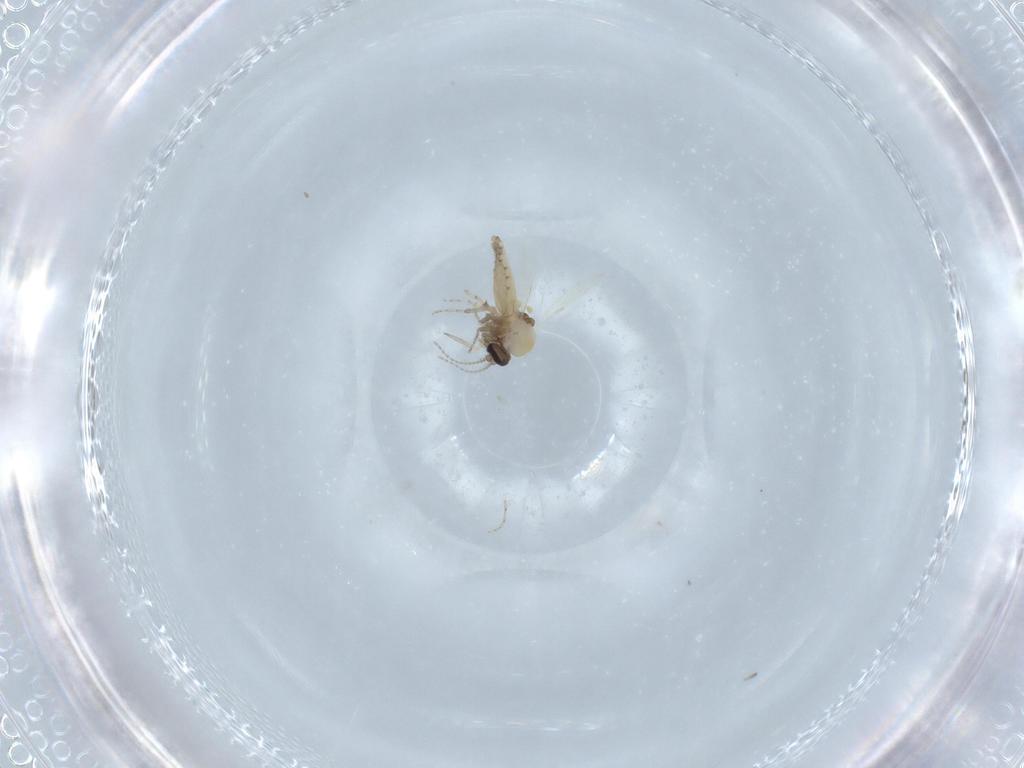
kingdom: Animalia
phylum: Arthropoda
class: Insecta
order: Diptera
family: Ceratopogonidae
